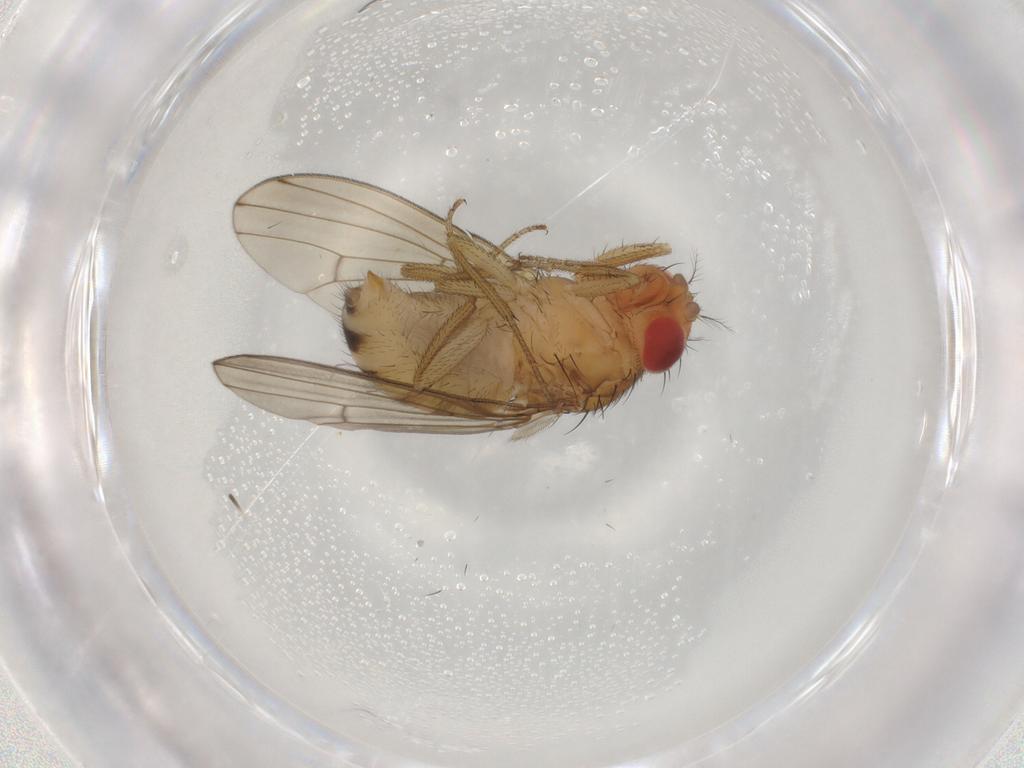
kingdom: Animalia
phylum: Arthropoda
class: Insecta
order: Diptera
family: Drosophilidae
